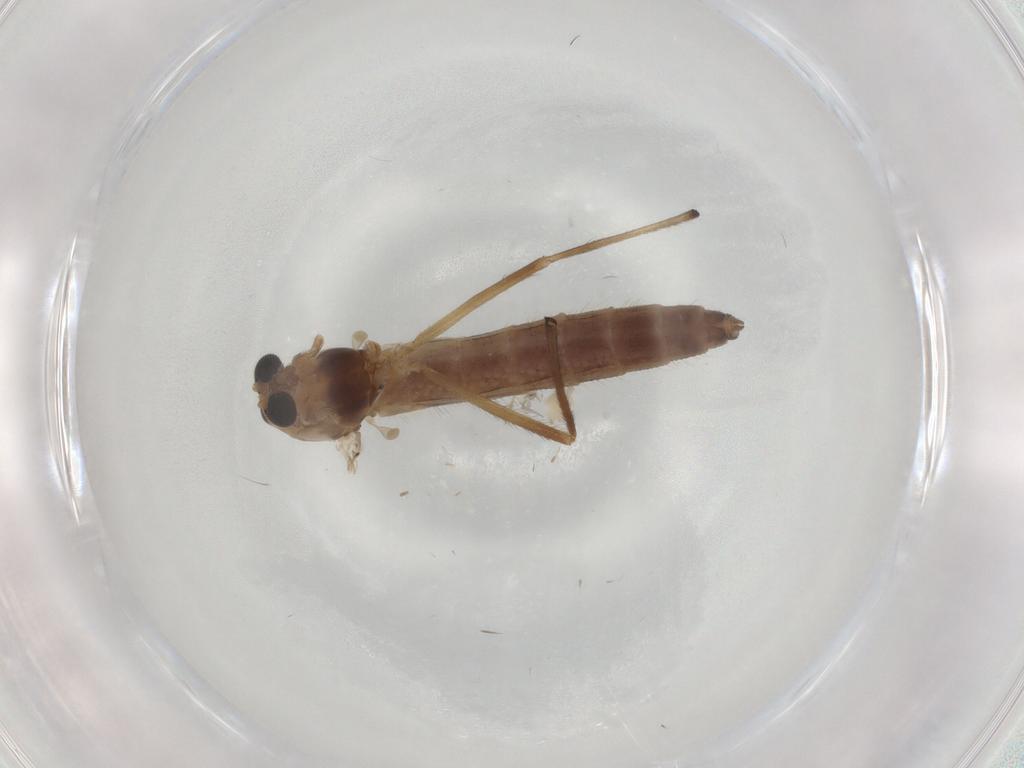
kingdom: Animalia
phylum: Arthropoda
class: Insecta
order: Diptera
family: Chironomidae
